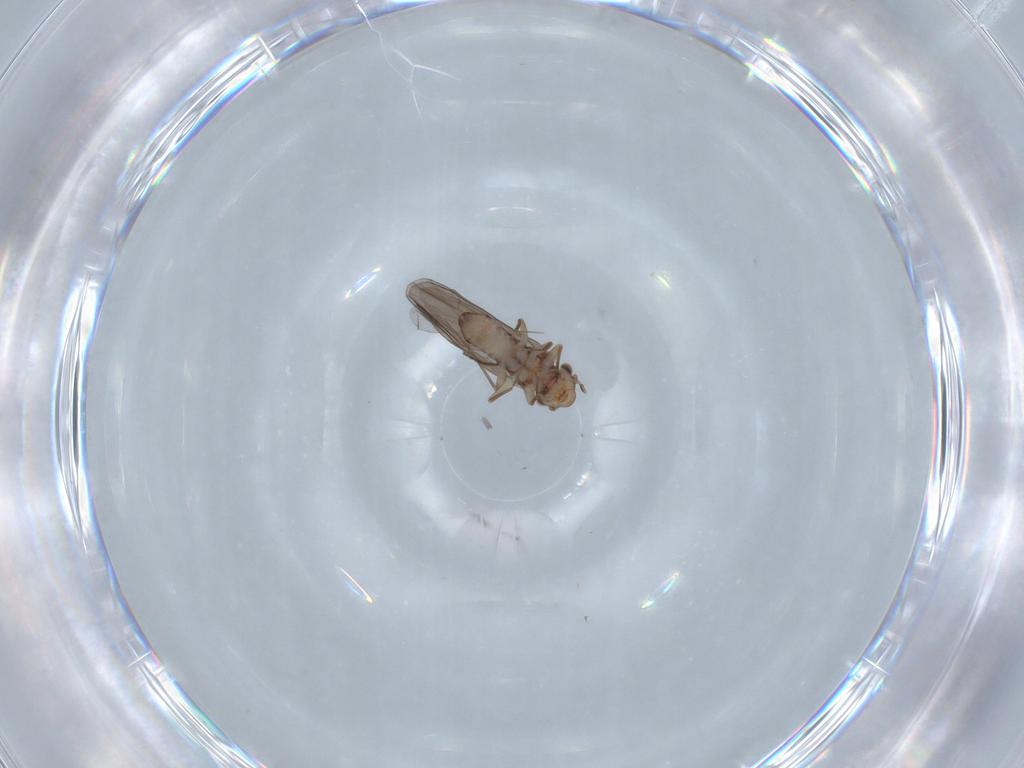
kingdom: Animalia
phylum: Arthropoda
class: Insecta
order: Psocodea
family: Lepidopsocidae
